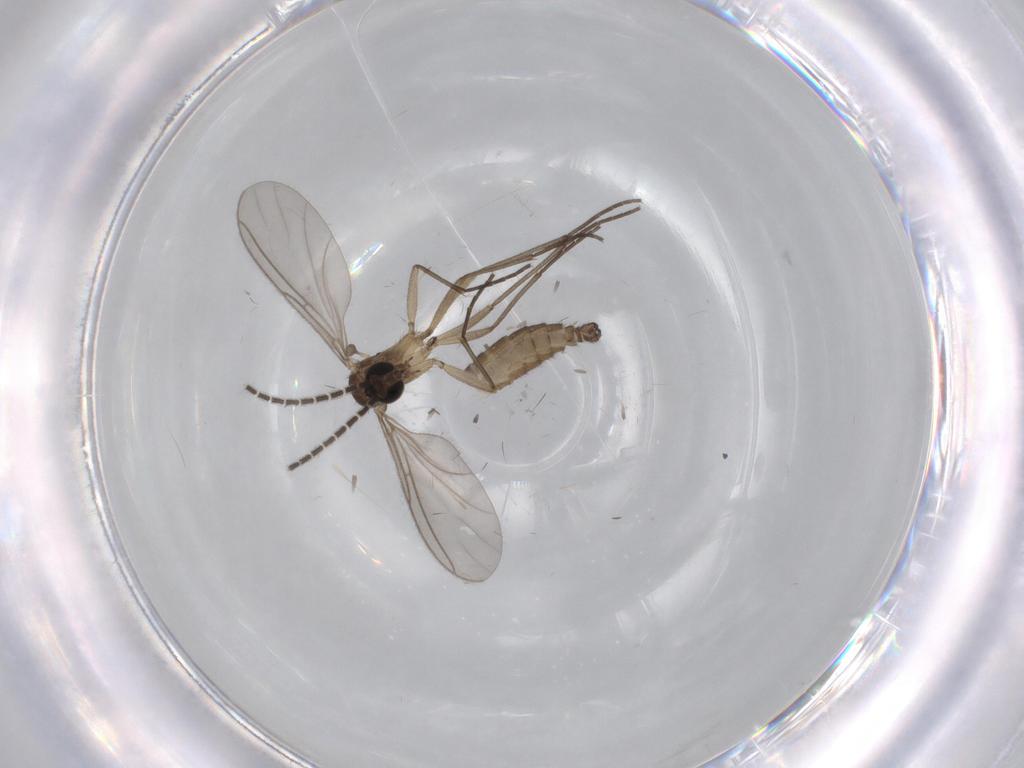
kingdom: Animalia
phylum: Arthropoda
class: Insecta
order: Diptera
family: Sciaridae
